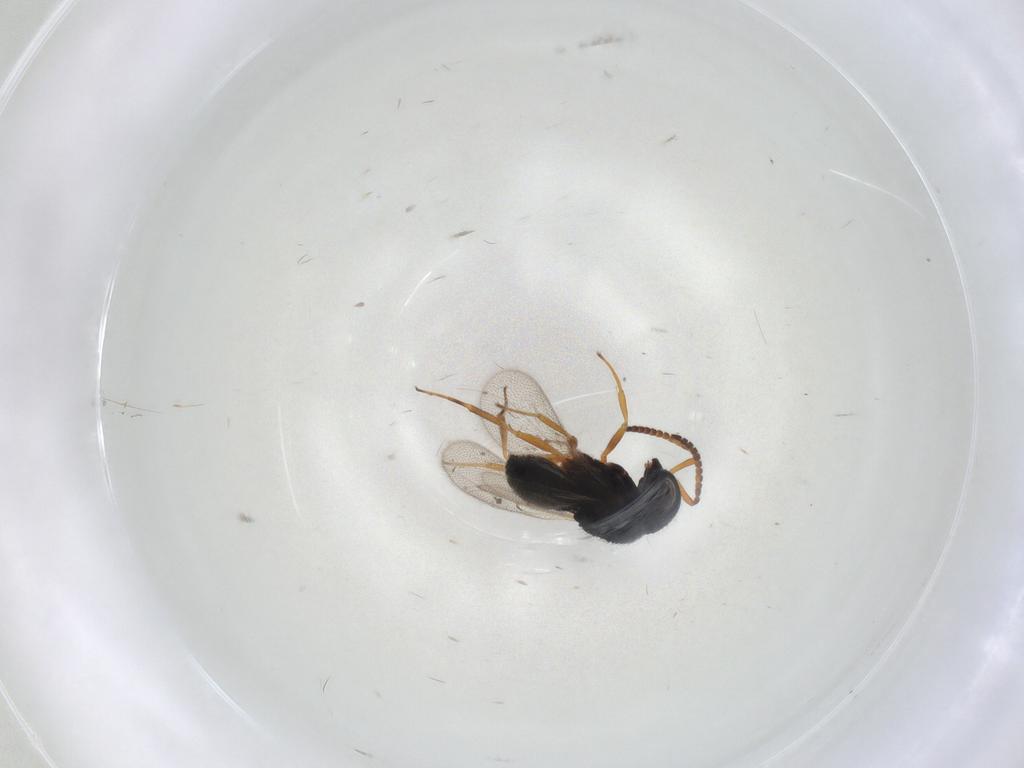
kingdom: Animalia
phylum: Arthropoda
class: Insecta
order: Hymenoptera
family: Scelionidae
